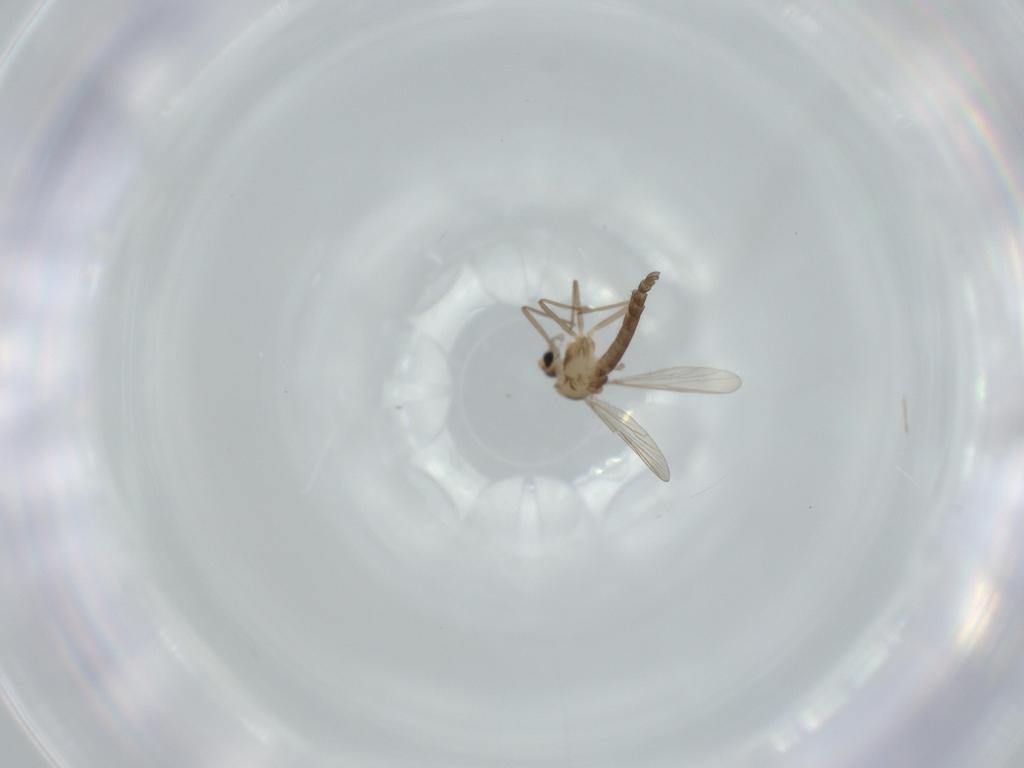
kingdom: Animalia
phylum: Arthropoda
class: Insecta
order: Diptera
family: Chironomidae
